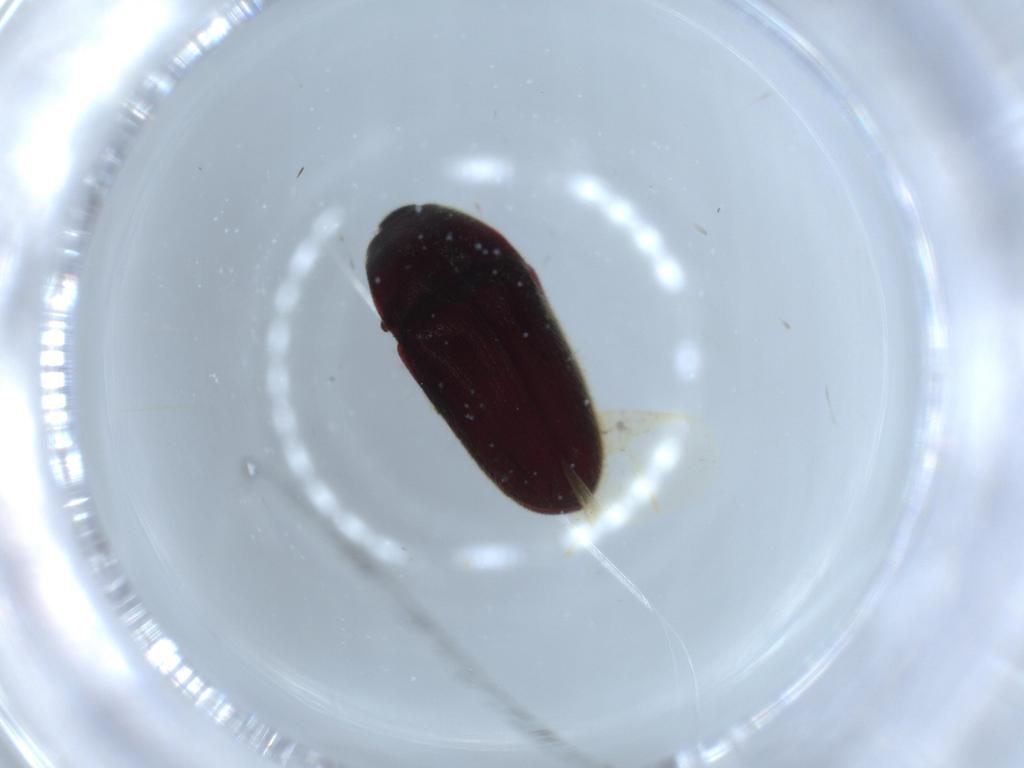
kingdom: Animalia
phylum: Arthropoda
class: Insecta
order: Coleoptera
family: Throscidae
